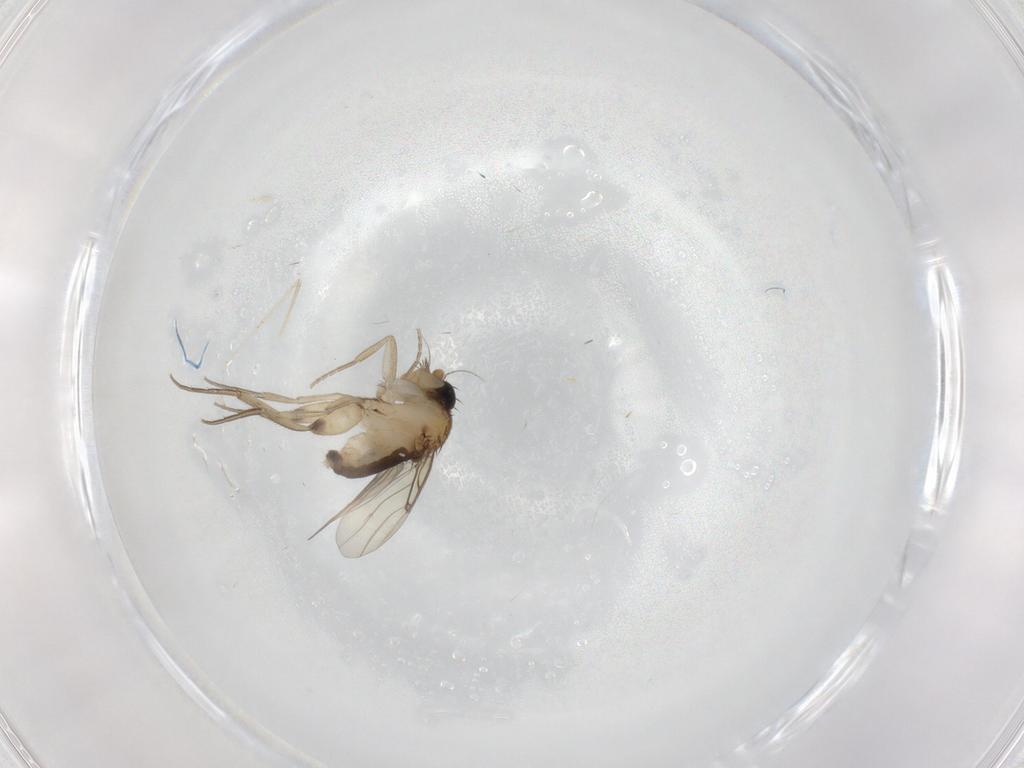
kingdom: Animalia
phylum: Arthropoda
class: Insecta
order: Diptera
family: Phoridae
